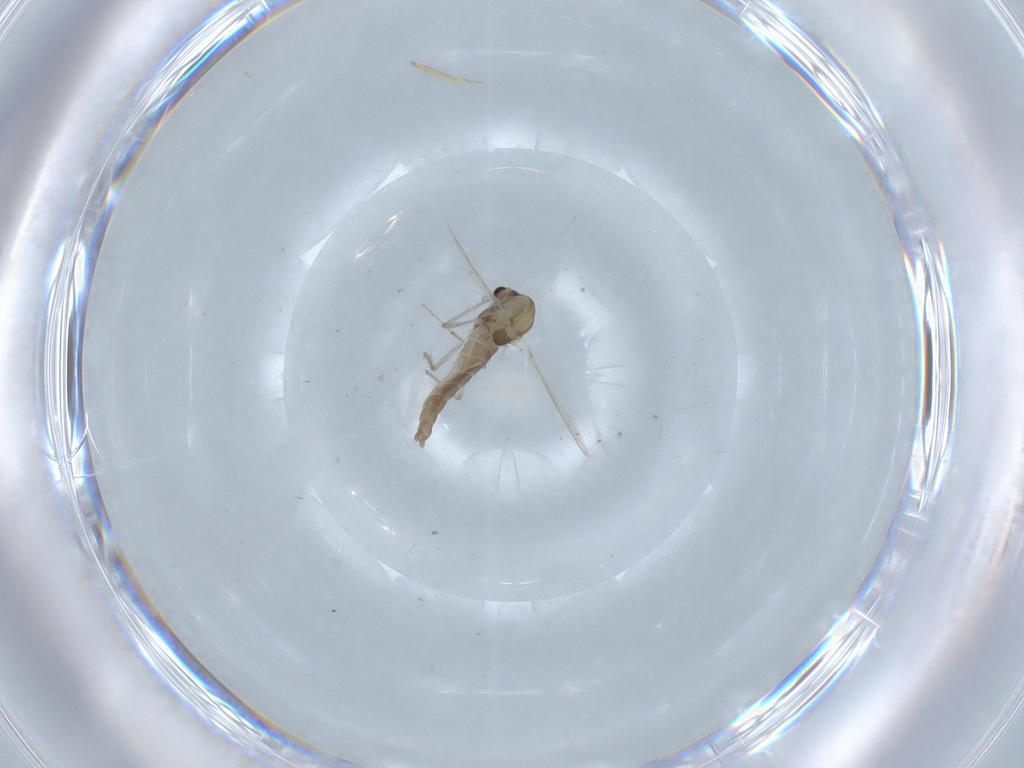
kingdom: Animalia
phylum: Arthropoda
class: Insecta
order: Diptera
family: Chironomidae
